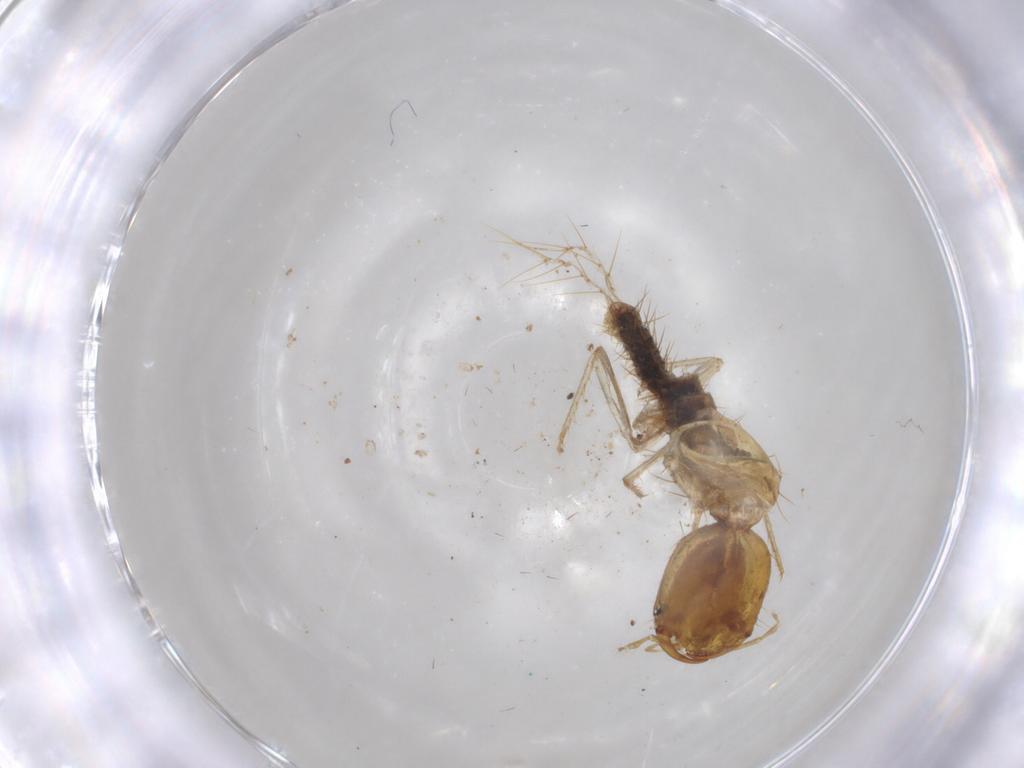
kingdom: Animalia
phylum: Arthropoda
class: Insecta
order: Coleoptera
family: Staphylinidae
